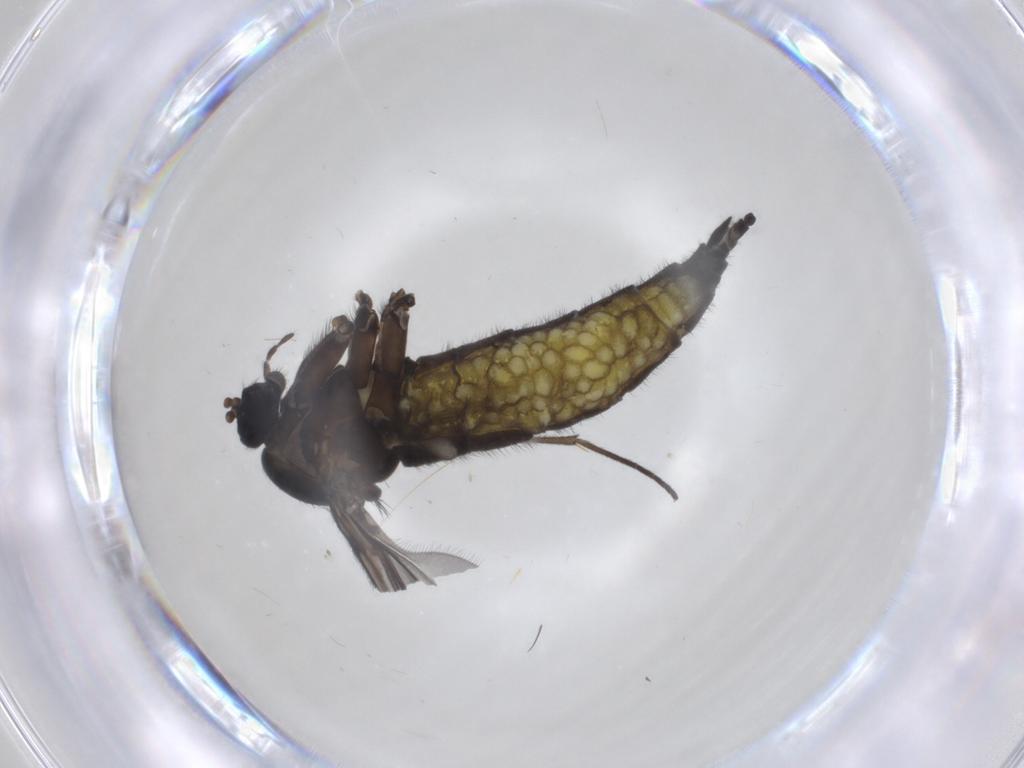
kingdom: Animalia
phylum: Arthropoda
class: Insecta
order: Diptera
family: Sciaridae
